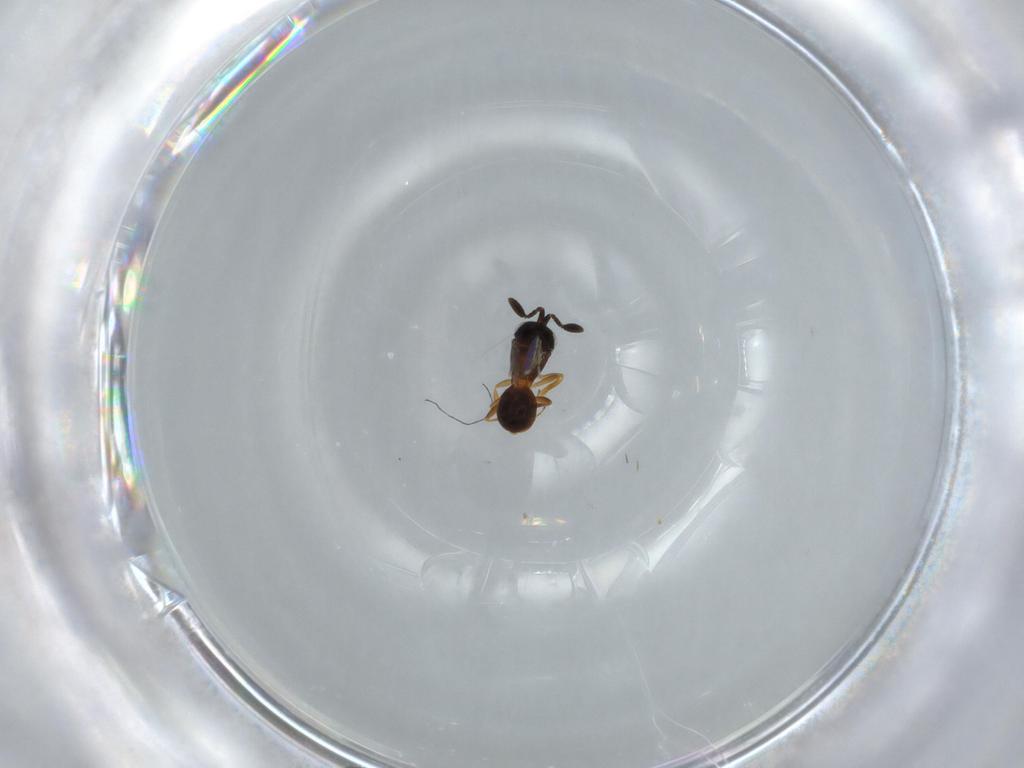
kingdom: Animalia
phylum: Arthropoda
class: Insecta
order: Hymenoptera
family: Scelionidae
